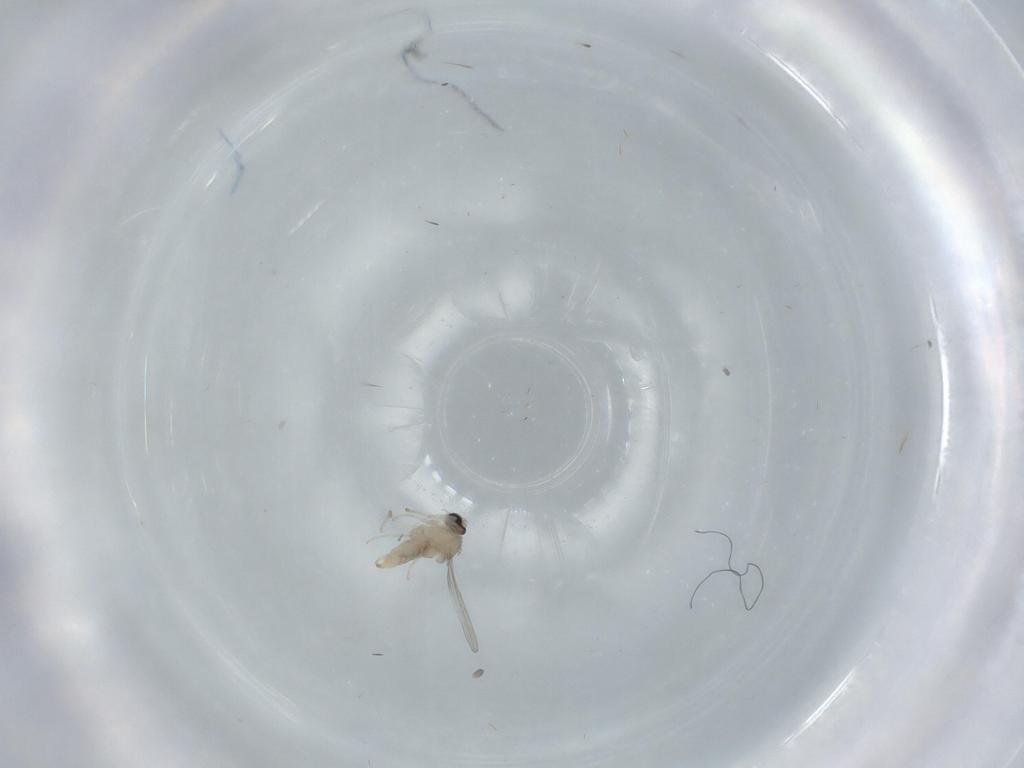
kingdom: Animalia
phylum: Arthropoda
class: Insecta
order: Diptera
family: Cecidomyiidae
